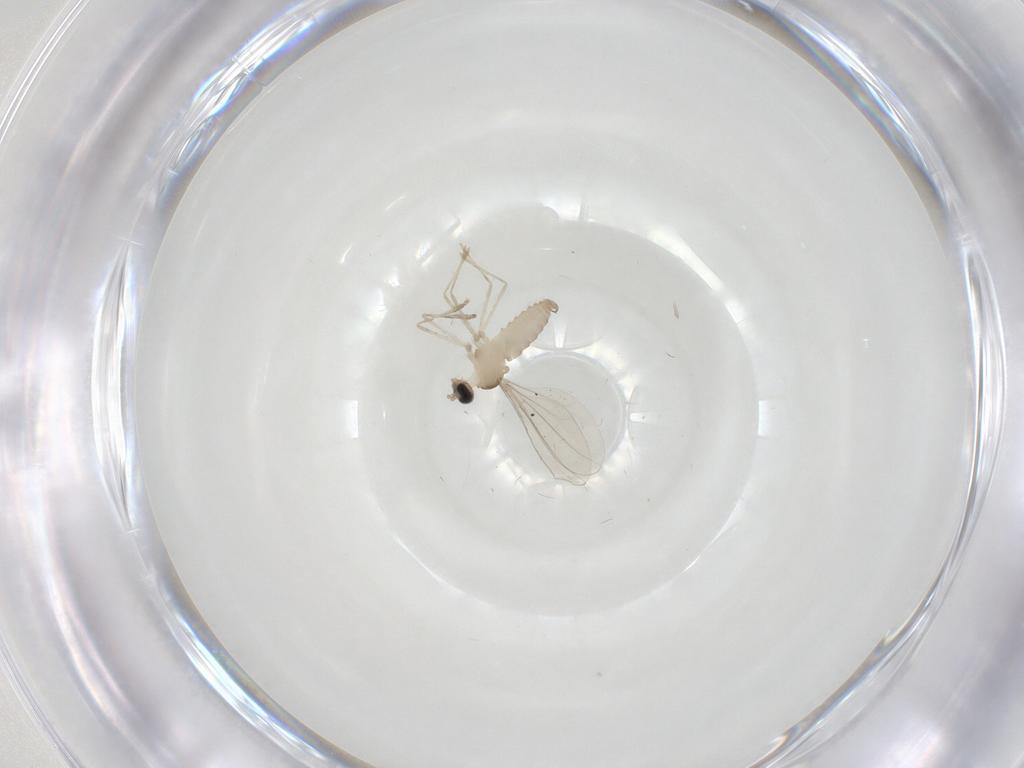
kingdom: Animalia
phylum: Arthropoda
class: Insecta
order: Diptera
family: Cecidomyiidae
